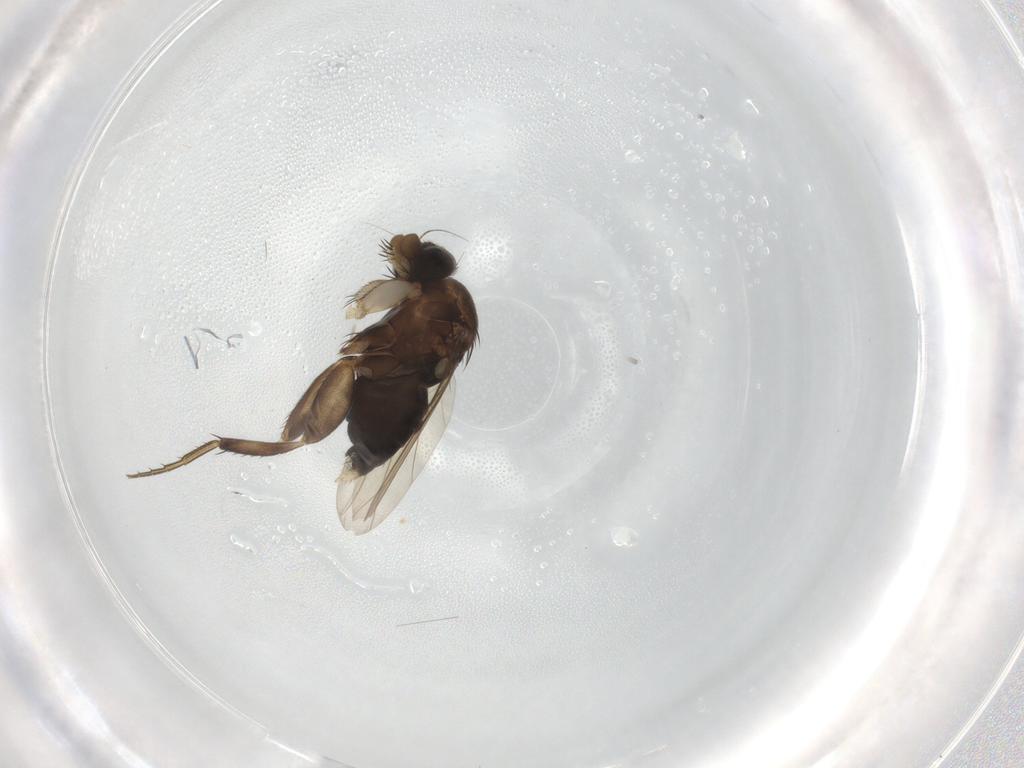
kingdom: Animalia
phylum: Arthropoda
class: Insecta
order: Diptera
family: Phoridae
